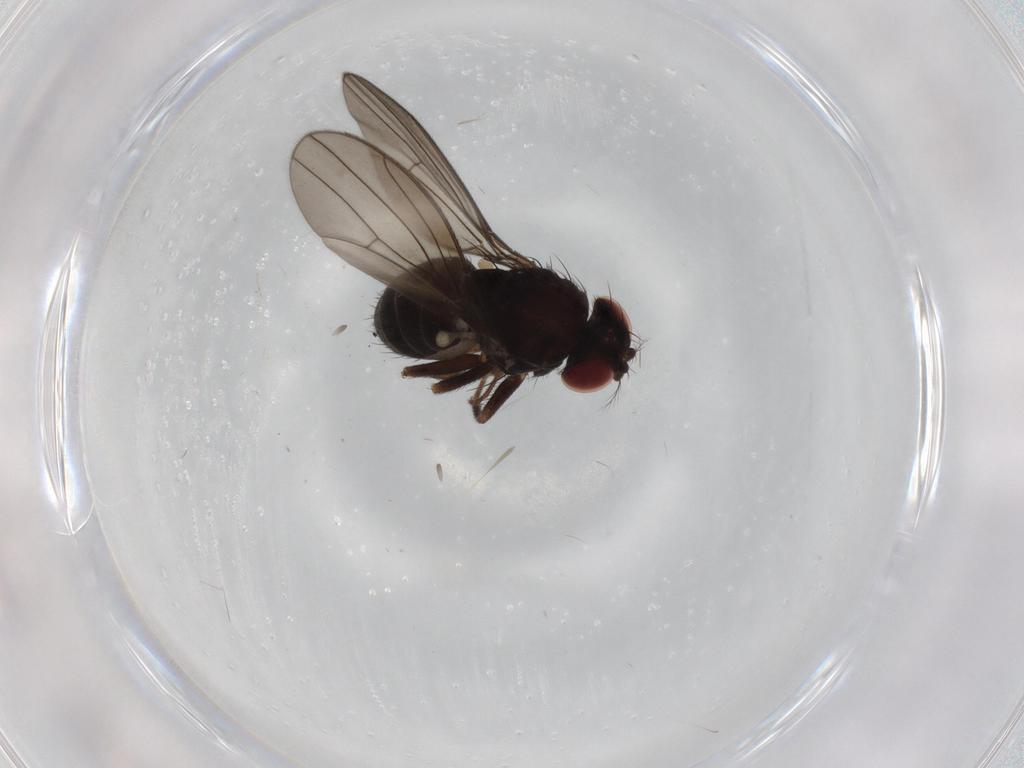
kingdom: Animalia
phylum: Arthropoda
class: Insecta
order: Diptera
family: Drosophilidae
